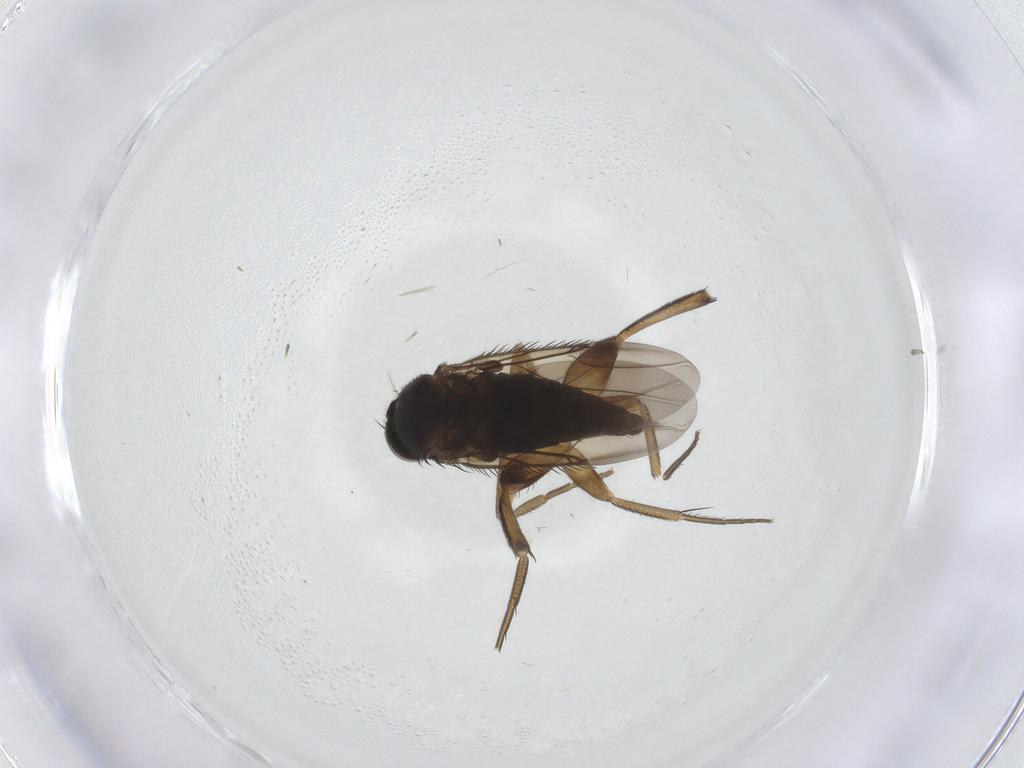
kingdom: Animalia
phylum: Arthropoda
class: Insecta
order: Diptera
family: Phoridae
